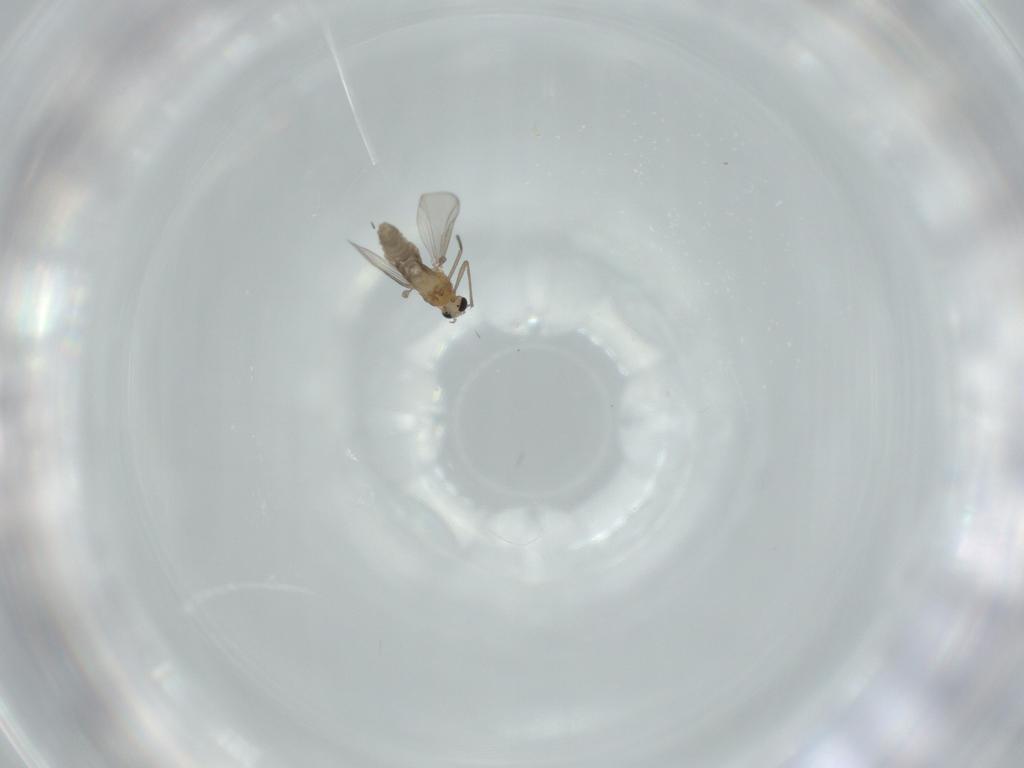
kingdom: Animalia
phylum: Arthropoda
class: Insecta
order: Diptera
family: Chironomidae
